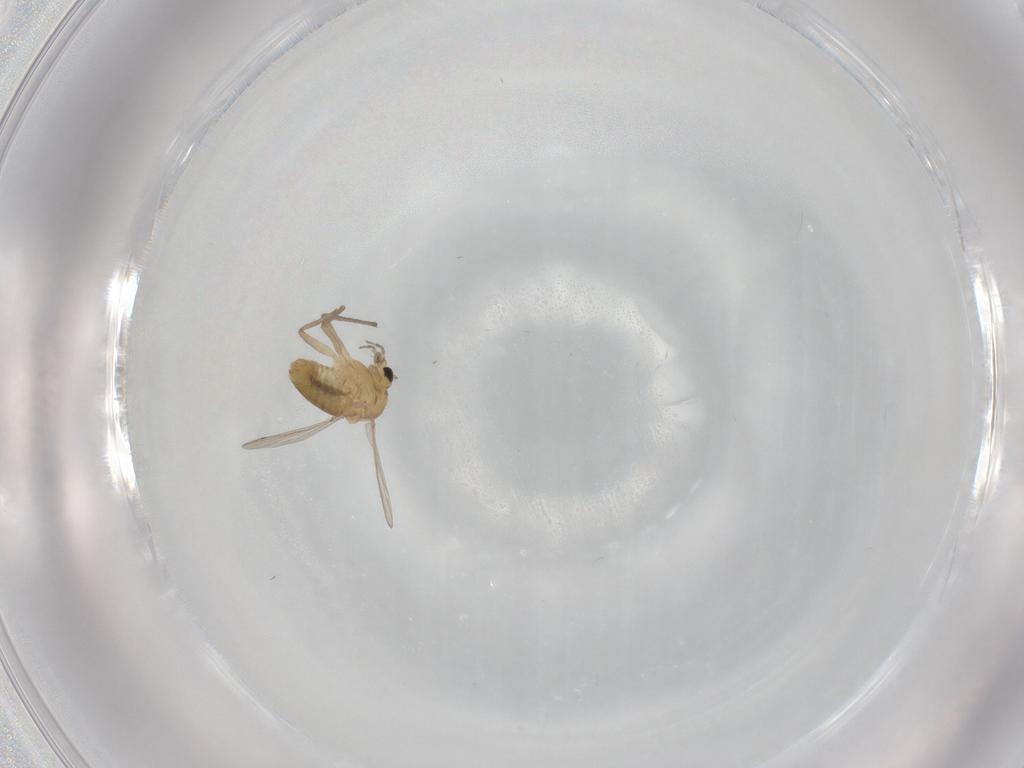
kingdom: Animalia
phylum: Arthropoda
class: Insecta
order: Diptera
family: Chironomidae
